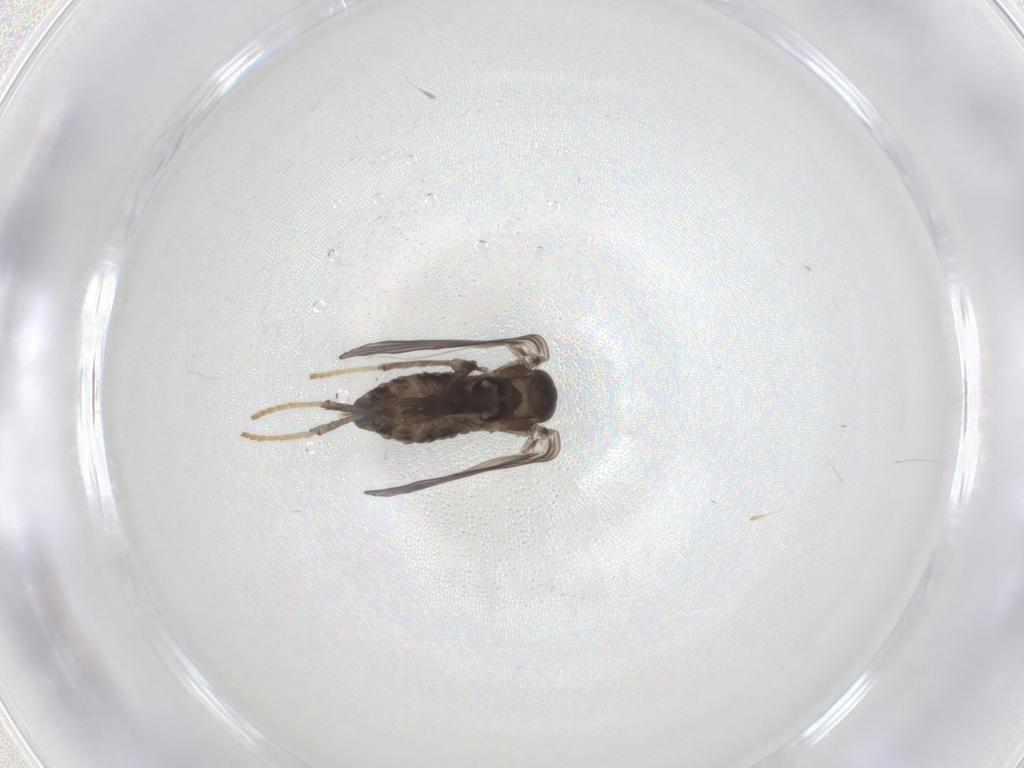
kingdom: Animalia
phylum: Arthropoda
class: Insecta
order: Diptera
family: Psychodidae
